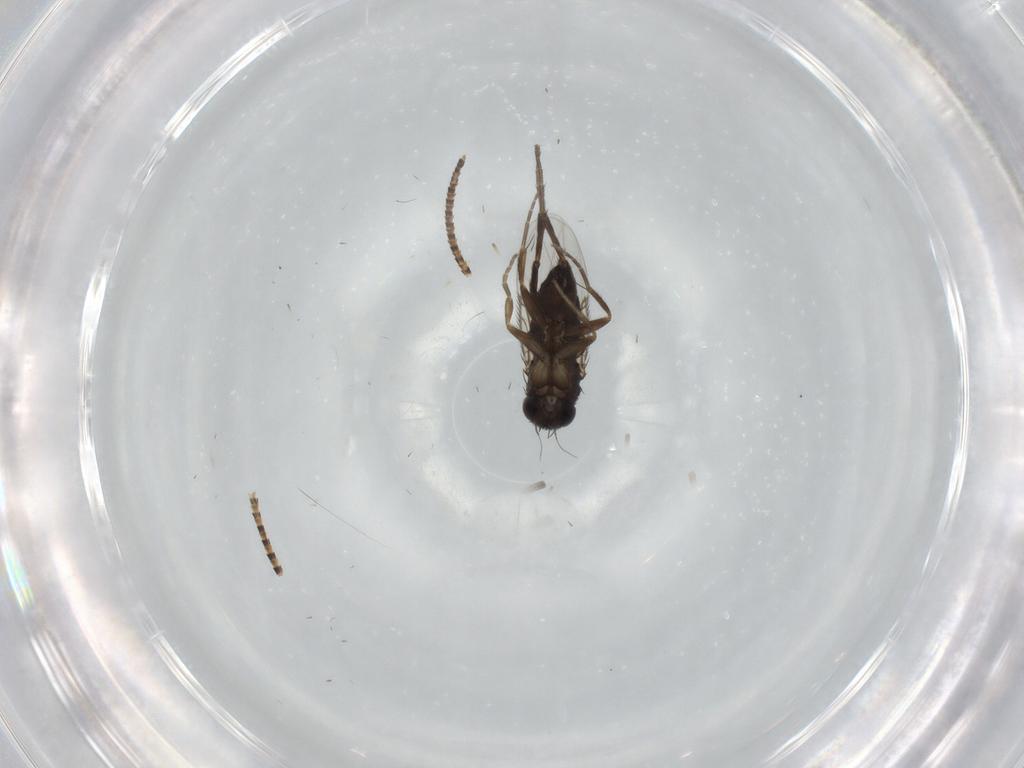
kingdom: Animalia
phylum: Arthropoda
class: Insecta
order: Diptera
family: Phoridae
